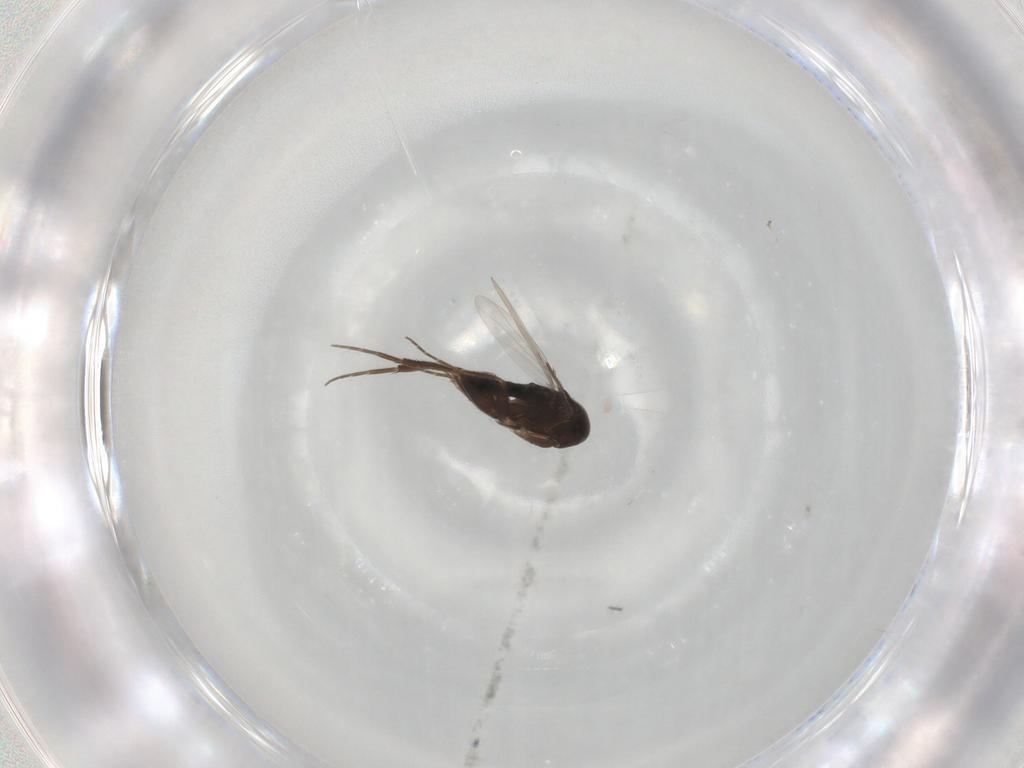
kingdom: Animalia
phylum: Arthropoda
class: Insecta
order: Diptera
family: Phoridae
